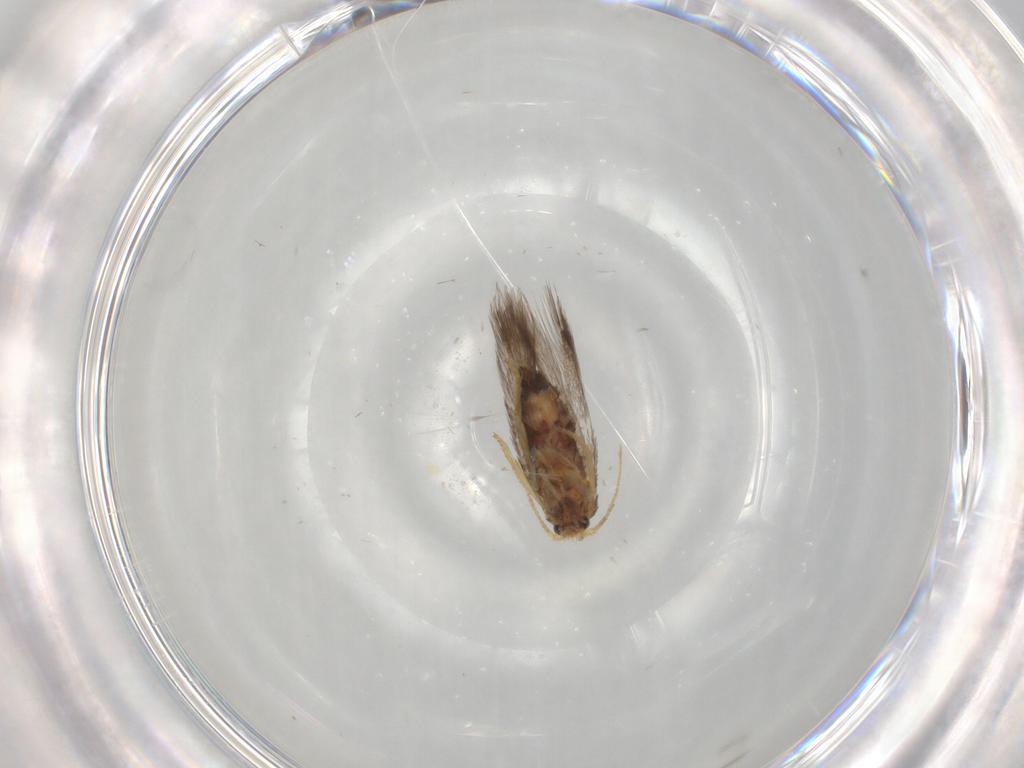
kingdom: Animalia
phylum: Arthropoda
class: Insecta
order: Lepidoptera
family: Nepticulidae
